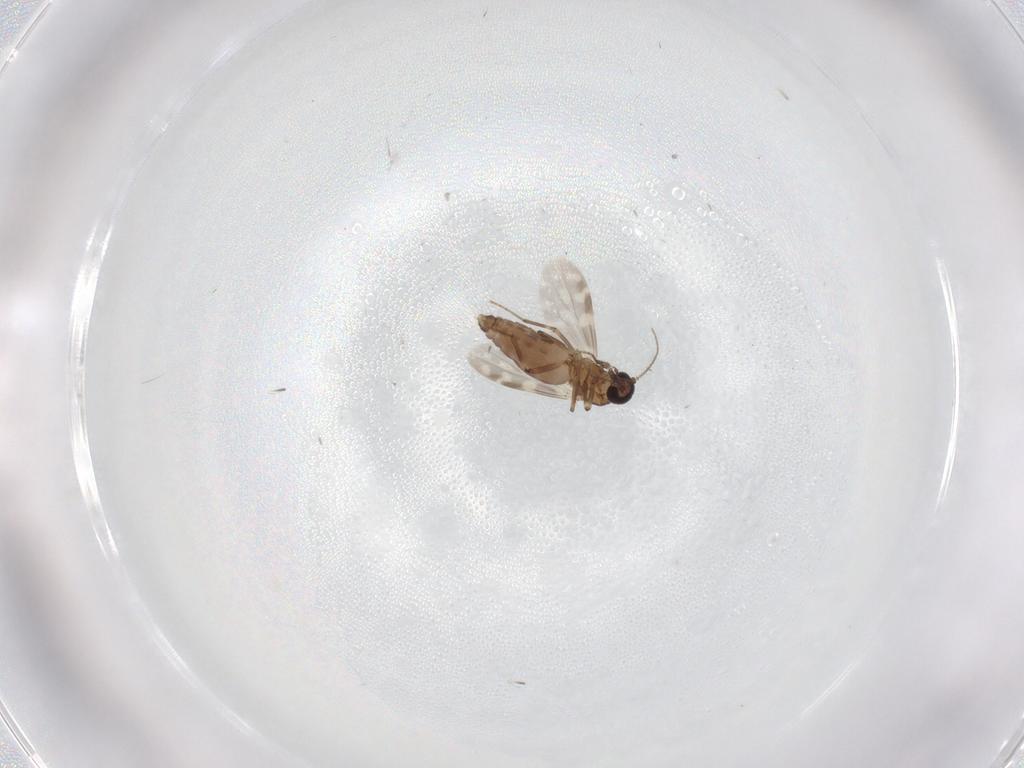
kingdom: Animalia
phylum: Arthropoda
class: Insecta
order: Diptera
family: Ceratopogonidae
